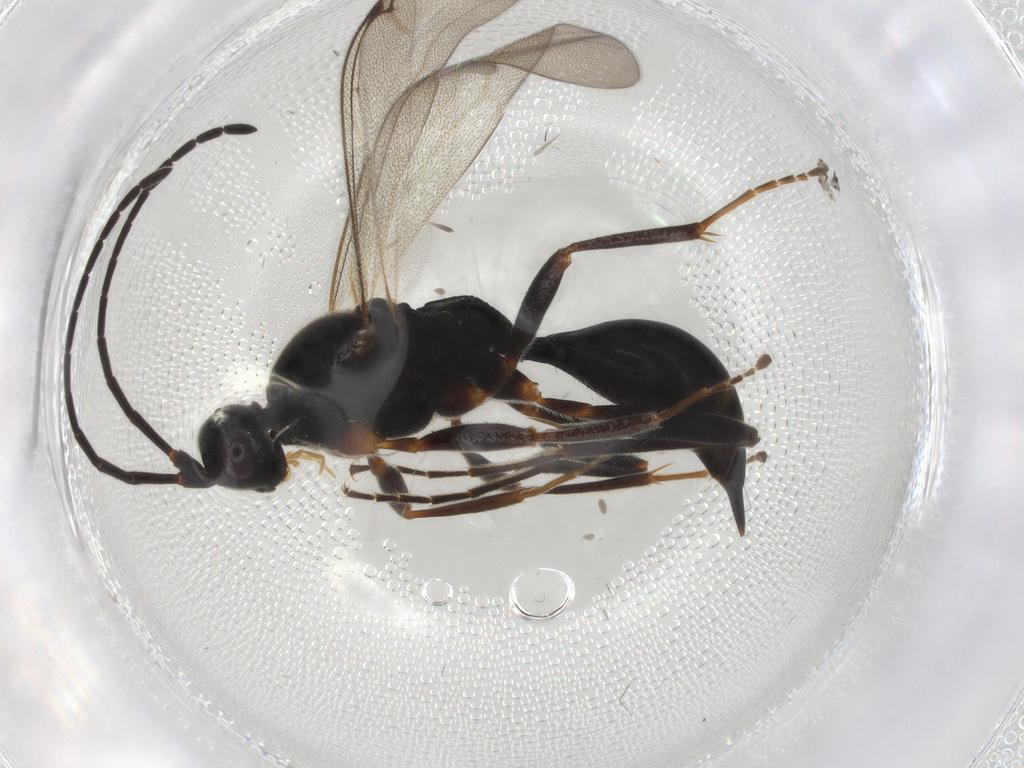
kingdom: Animalia
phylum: Arthropoda
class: Insecta
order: Hymenoptera
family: Proctotrupidae
